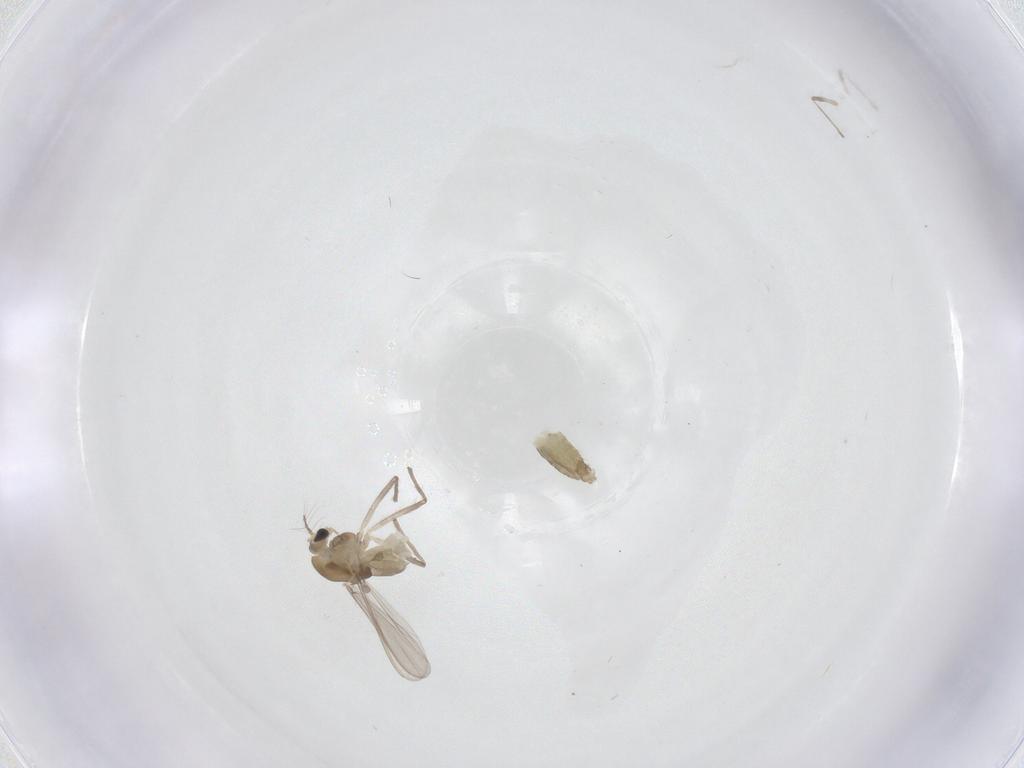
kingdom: Animalia
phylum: Arthropoda
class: Insecta
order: Diptera
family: Chironomidae
